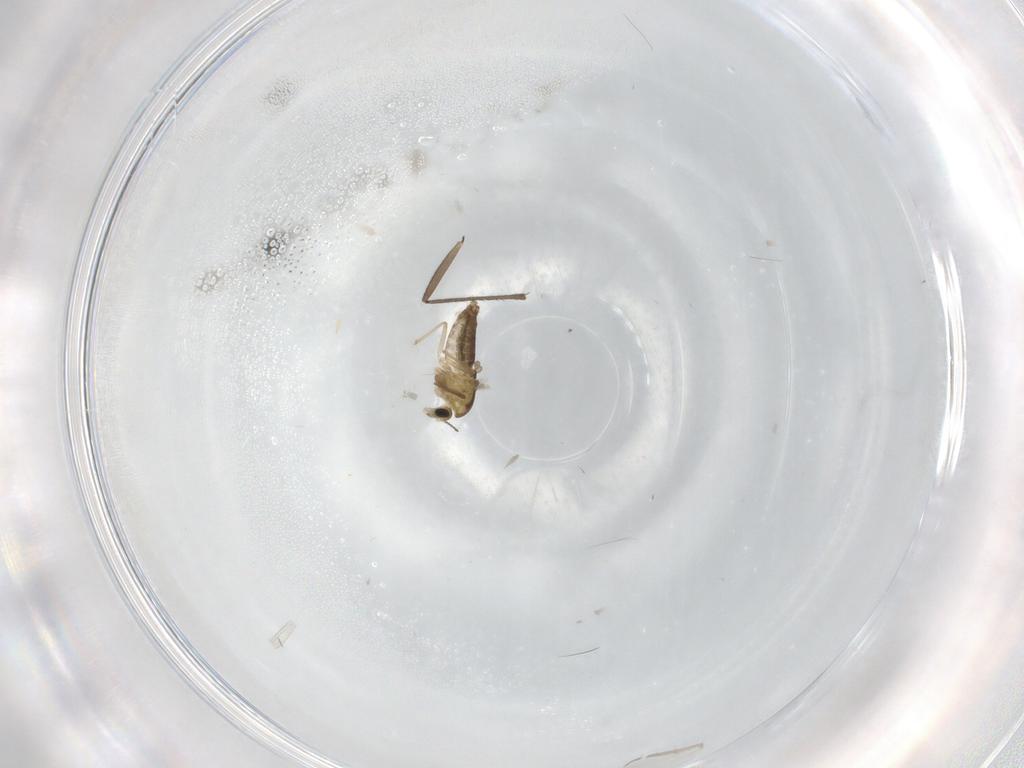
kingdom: Animalia
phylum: Arthropoda
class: Insecta
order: Diptera
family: Chironomidae
